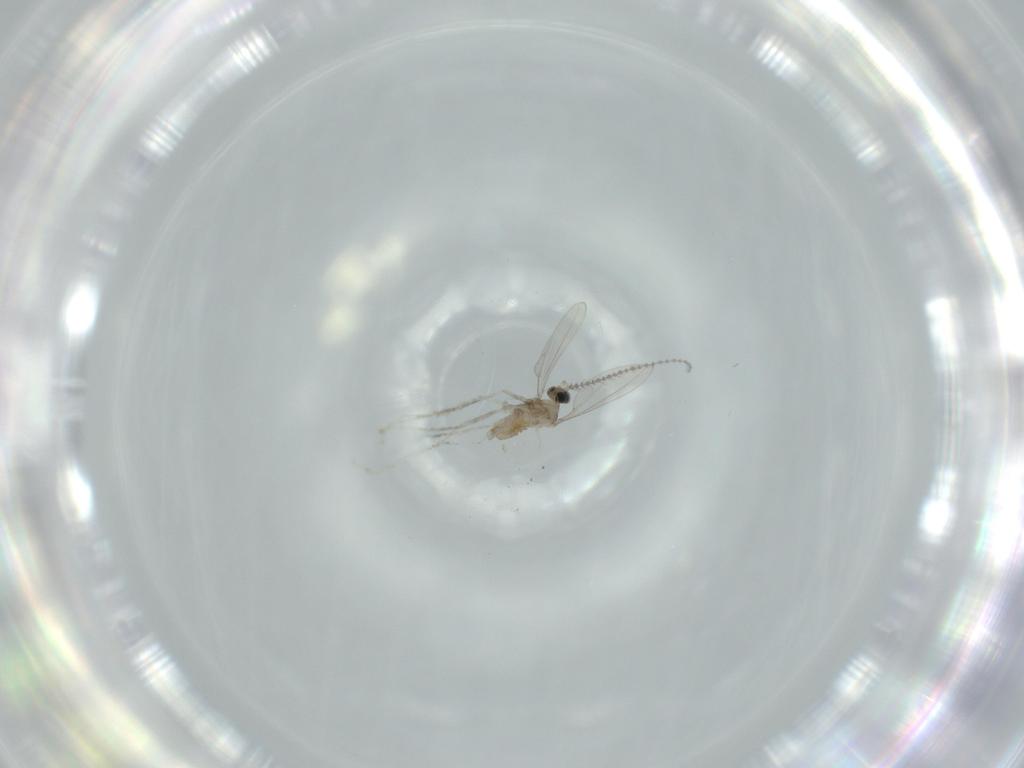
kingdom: Animalia
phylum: Arthropoda
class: Insecta
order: Diptera
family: Cecidomyiidae
